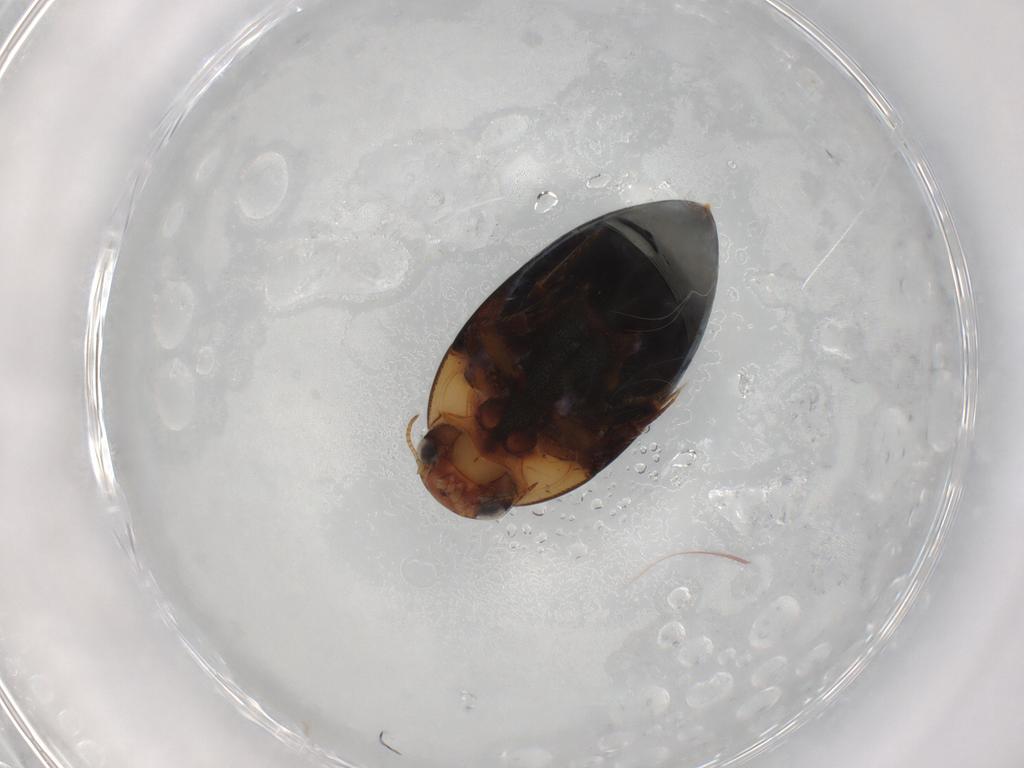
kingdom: Animalia
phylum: Arthropoda
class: Insecta
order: Coleoptera
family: Noteridae
